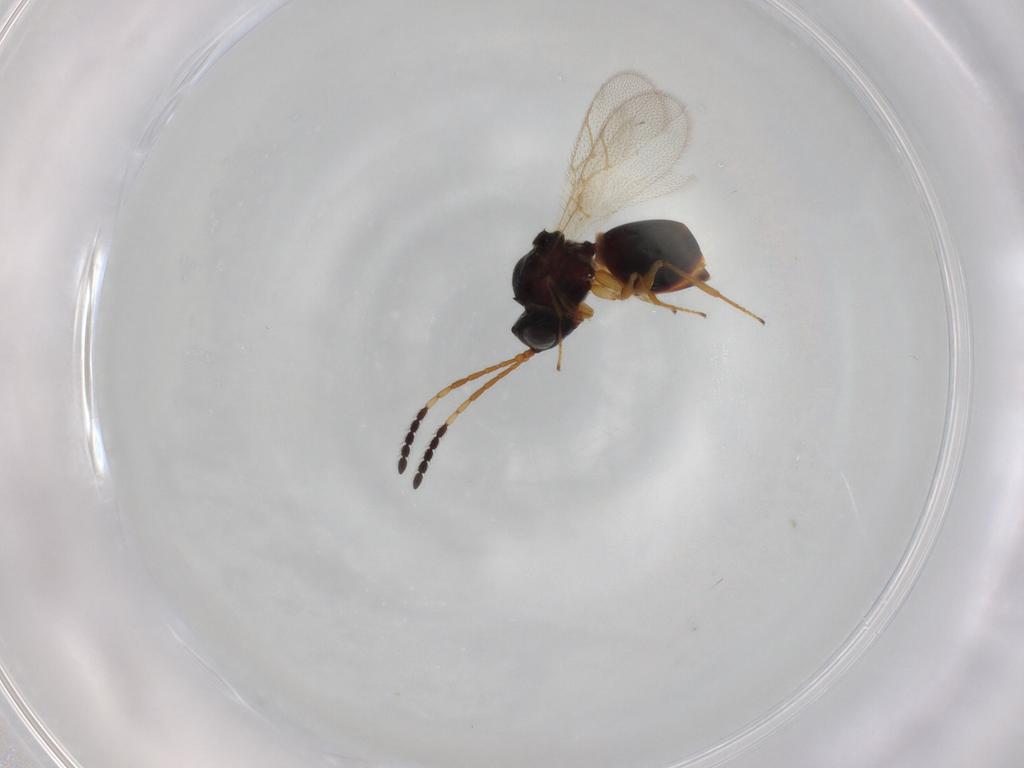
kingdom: Animalia
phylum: Arthropoda
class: Insecta
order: Hymenoptera
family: Figitidae
